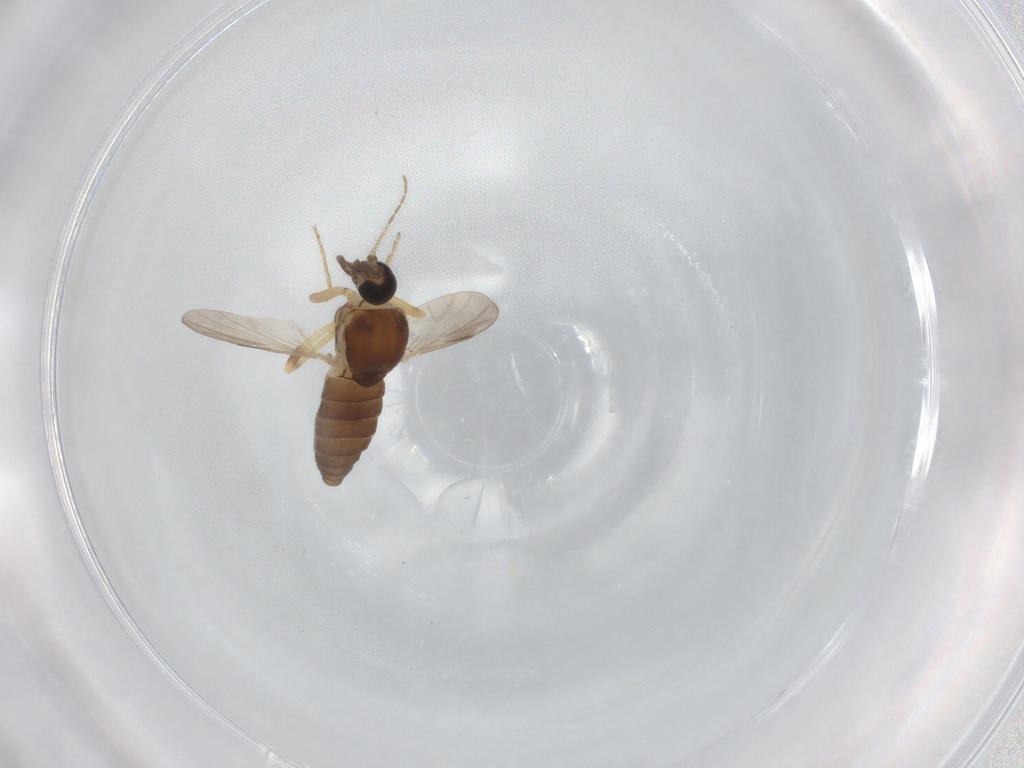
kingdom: Animalia
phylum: Arthropoda
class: Insecta
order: Diptera
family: Ceratopogonidae
